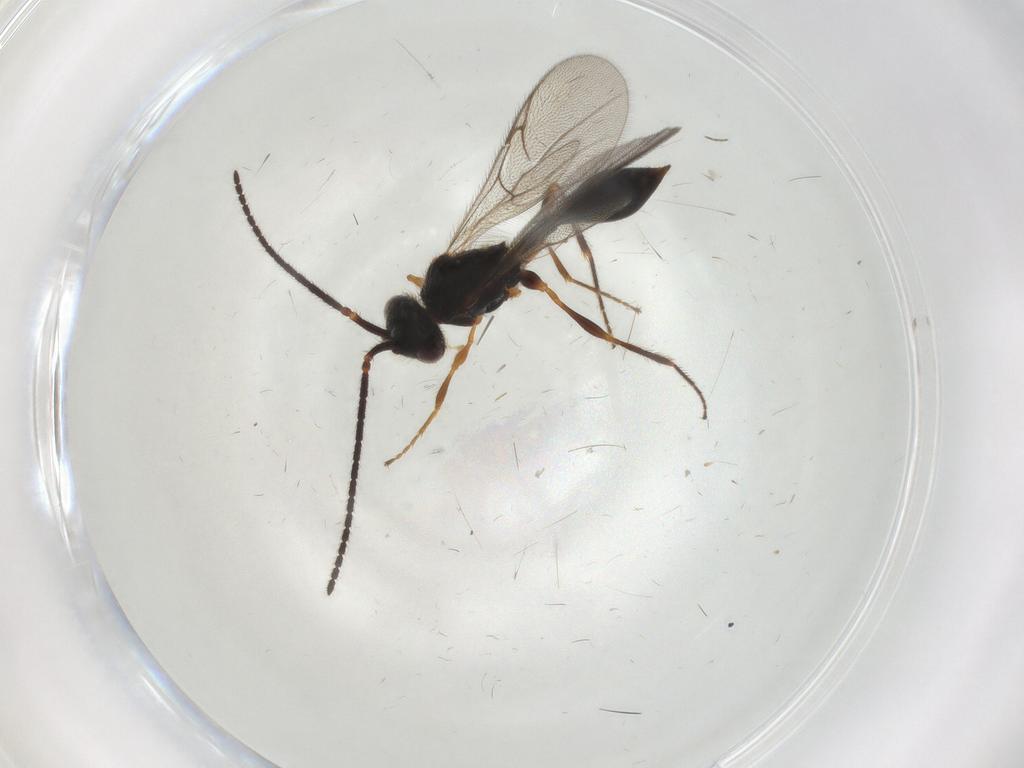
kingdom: Animalia
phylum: Arthropoda
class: Insecta
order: Hymenoptera
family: Diapriidae
